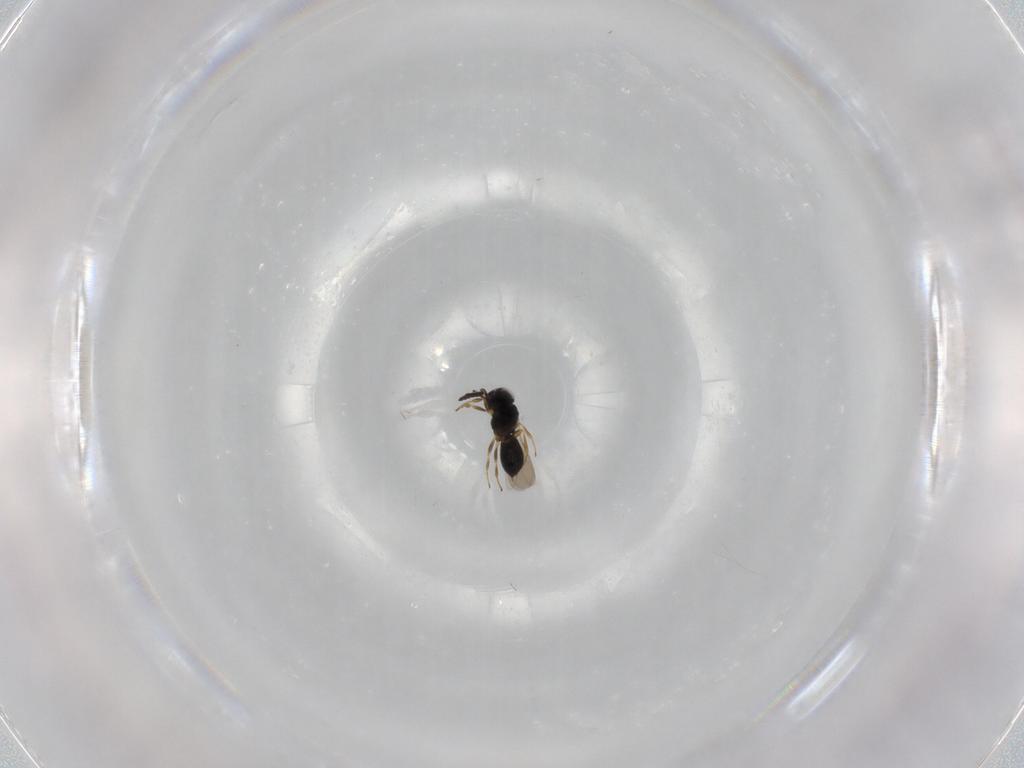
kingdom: Animalia
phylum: Arthropoda
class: Insecta
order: Hymenoptera
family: Scelionidae
